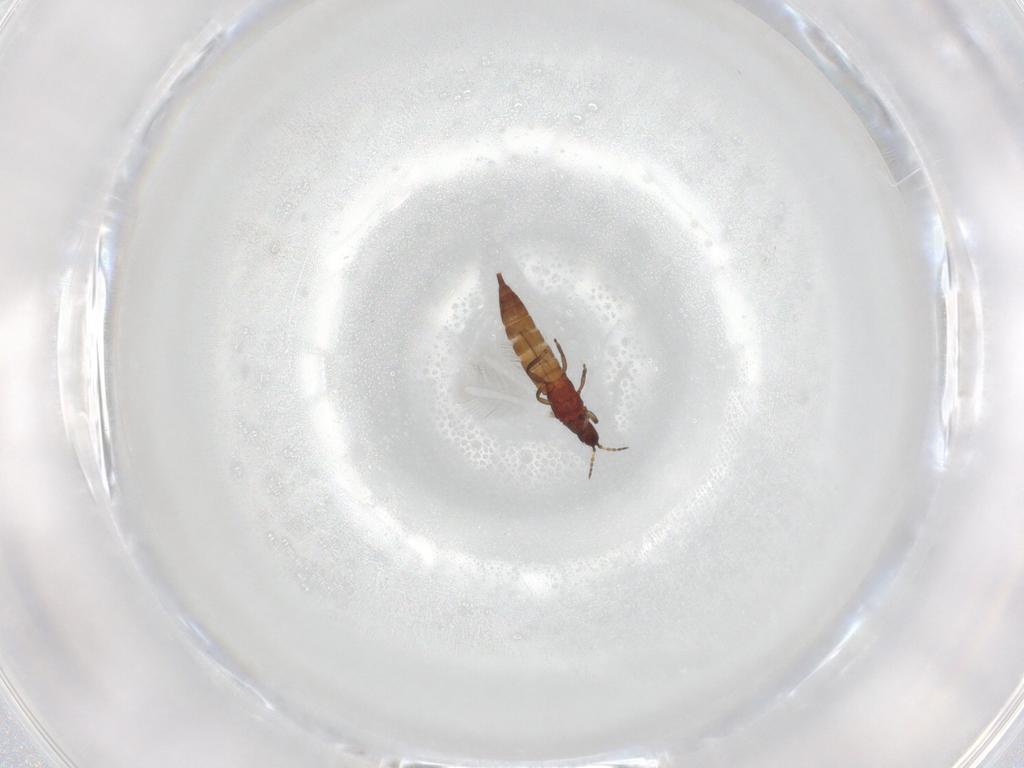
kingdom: Animalia
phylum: Arthropoda
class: Insecta
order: Thysanoptera
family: Phlaeothripidae
